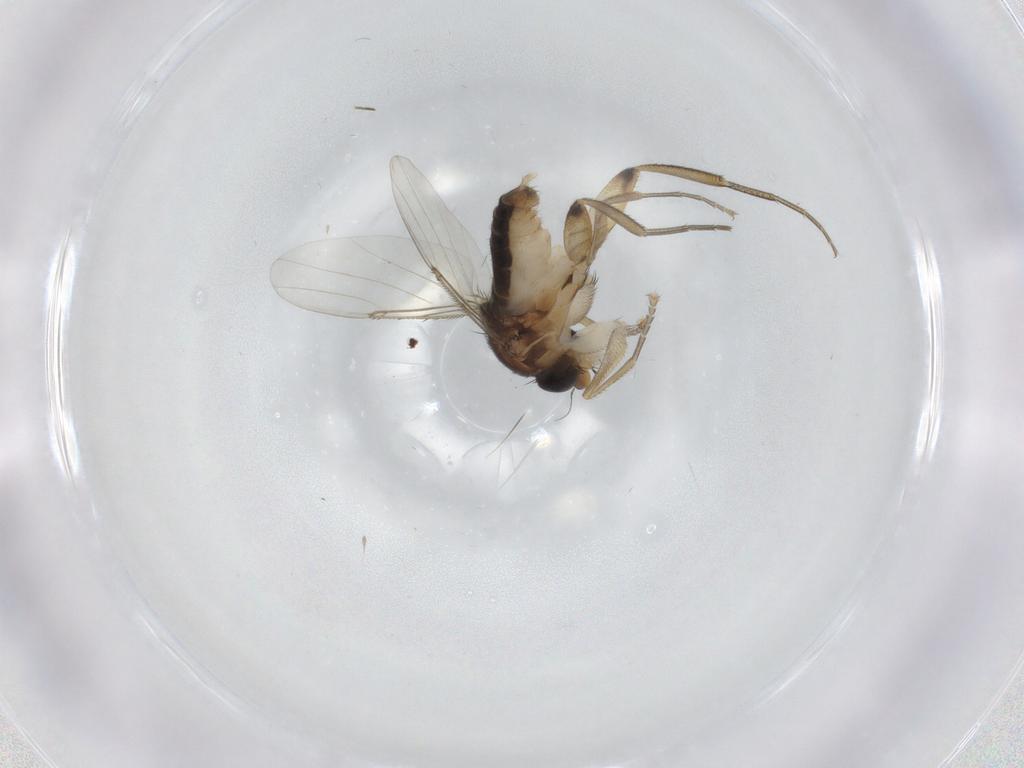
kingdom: Animalia
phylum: Arthropoda
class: Insecta
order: Diptera
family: Phoridae
